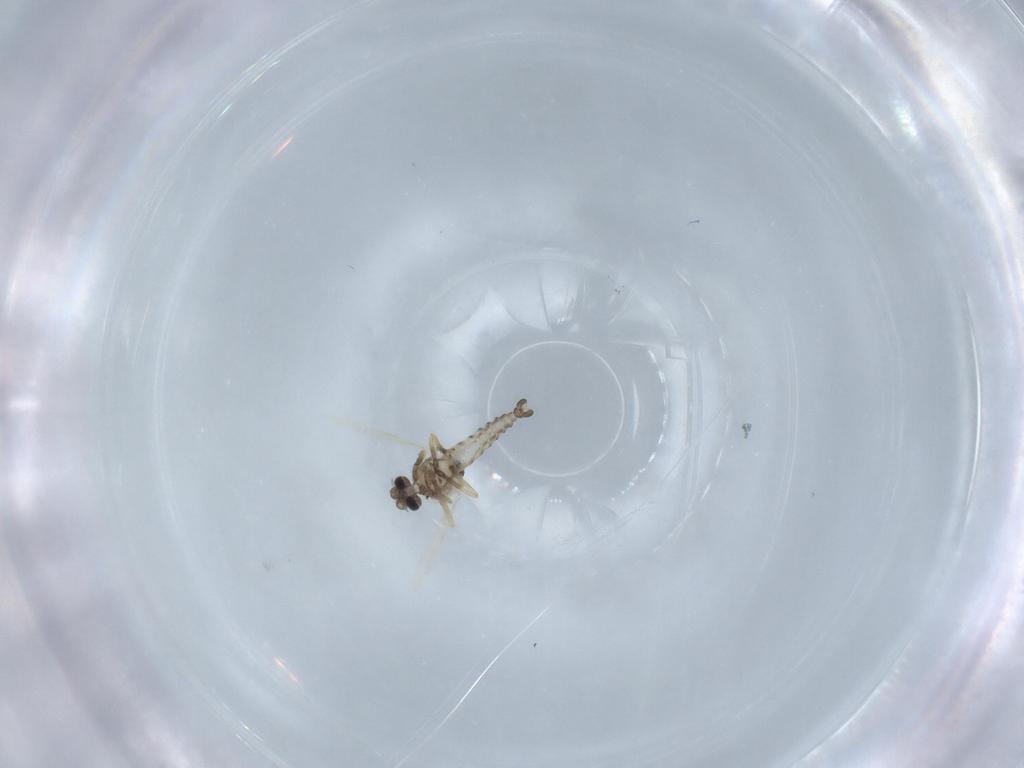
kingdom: Animalia
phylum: Arthropoda
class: Insecta
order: Diptera
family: Ceratopogonidae
